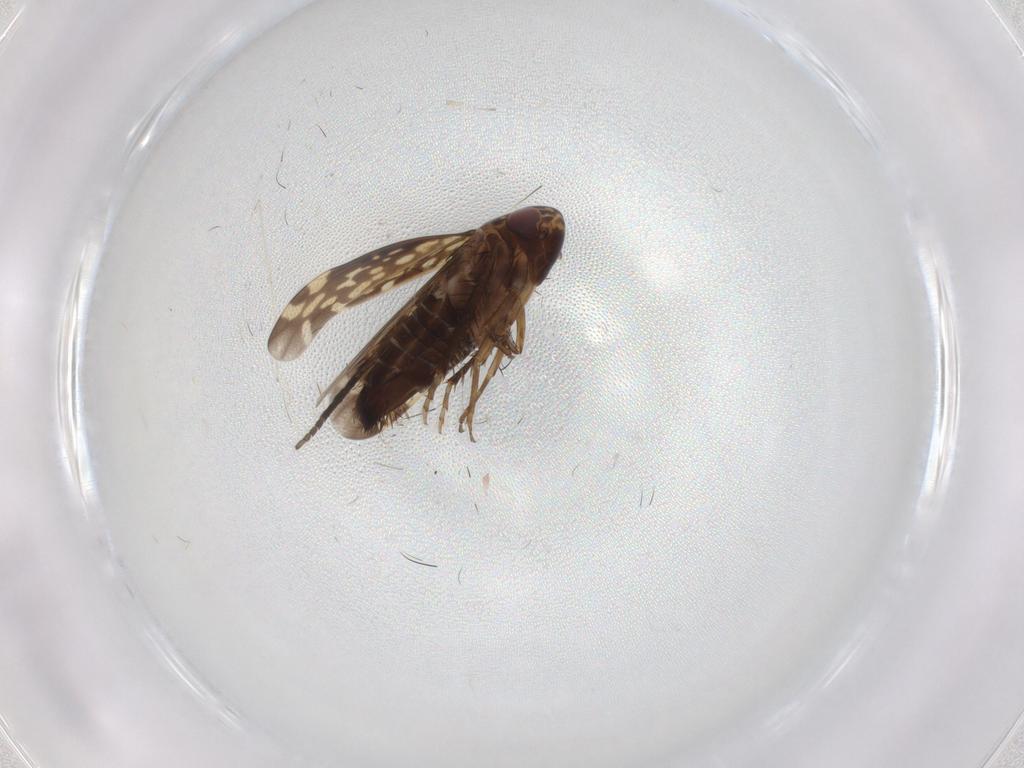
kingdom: Animalia
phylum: Arthropoda
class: Insecta
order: Hemiptera
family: Cicadellidae
